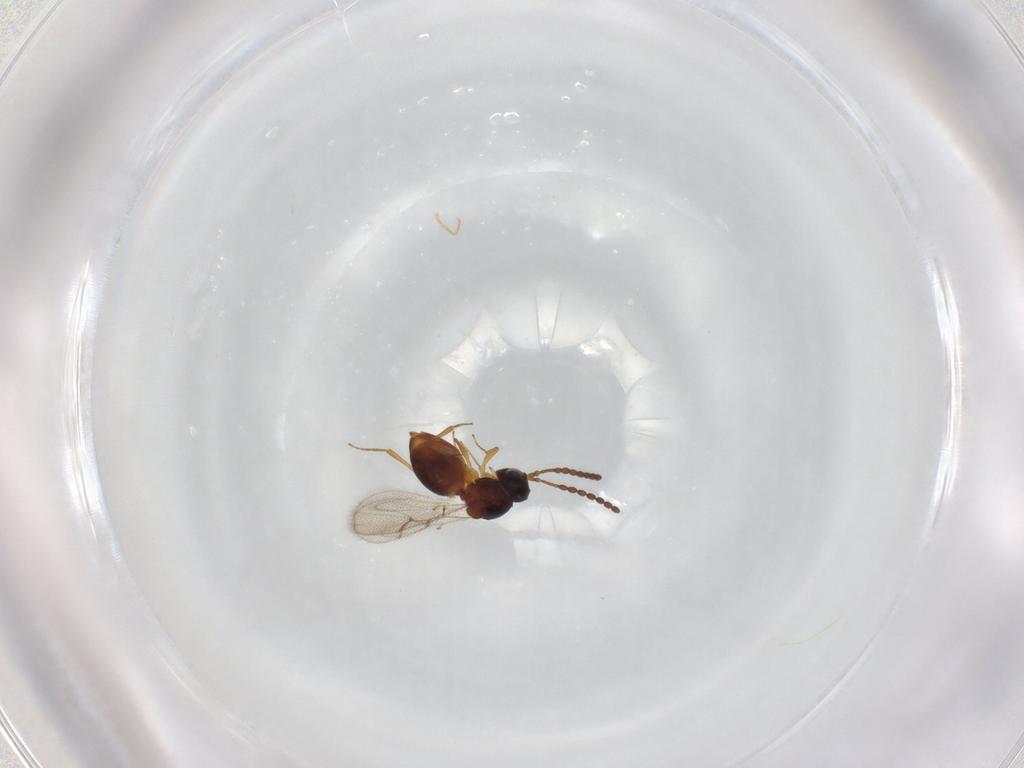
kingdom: Animalia
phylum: Arthropoda
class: Insecta
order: Hymenoptera
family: Figitidae
